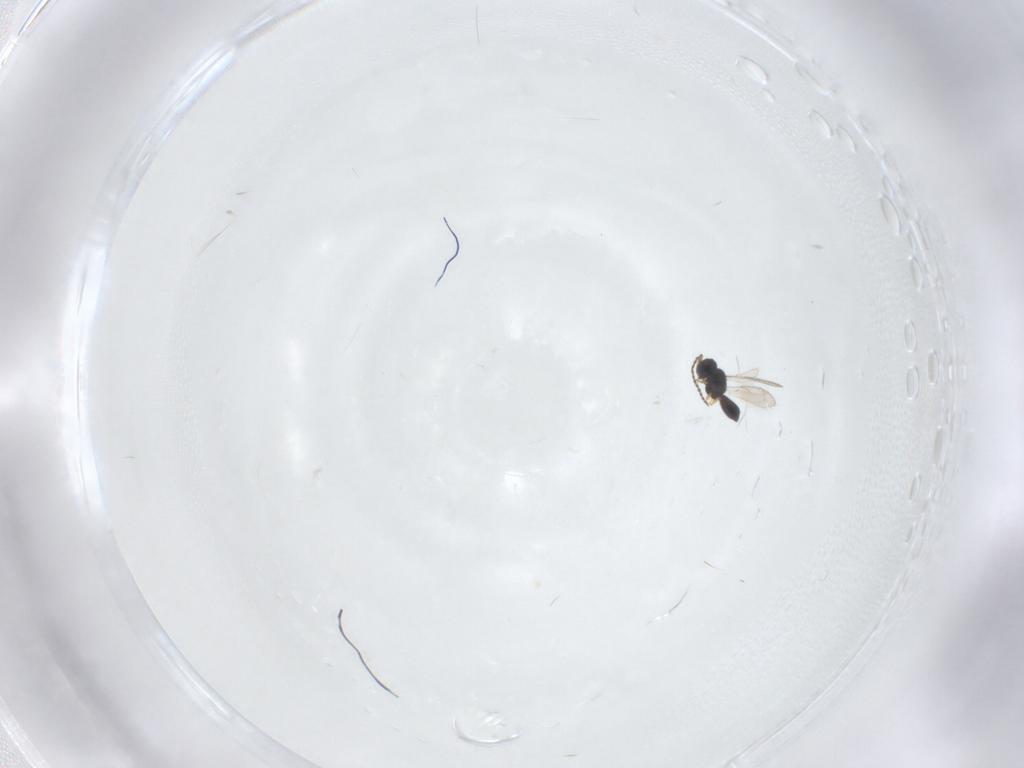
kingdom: Animalia
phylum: Arthropoda
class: Insecta
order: Hymenoptera
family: Scelionidae
